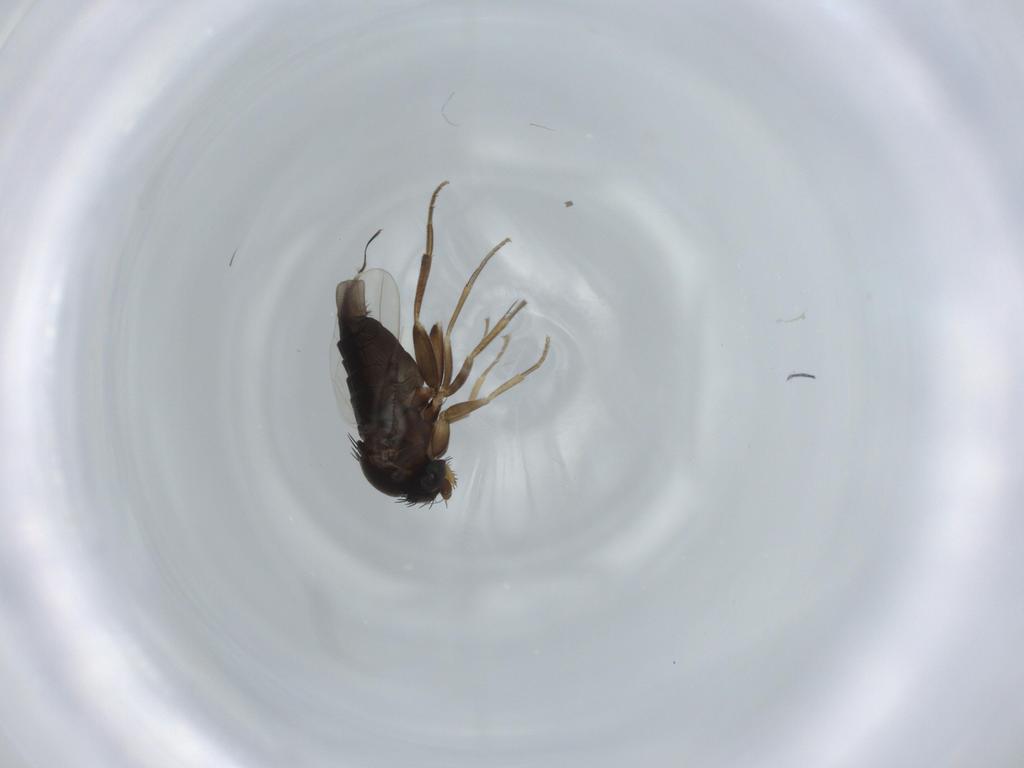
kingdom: Animalia
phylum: Arthropoda
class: Insecta
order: Diptera
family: Phoridae
